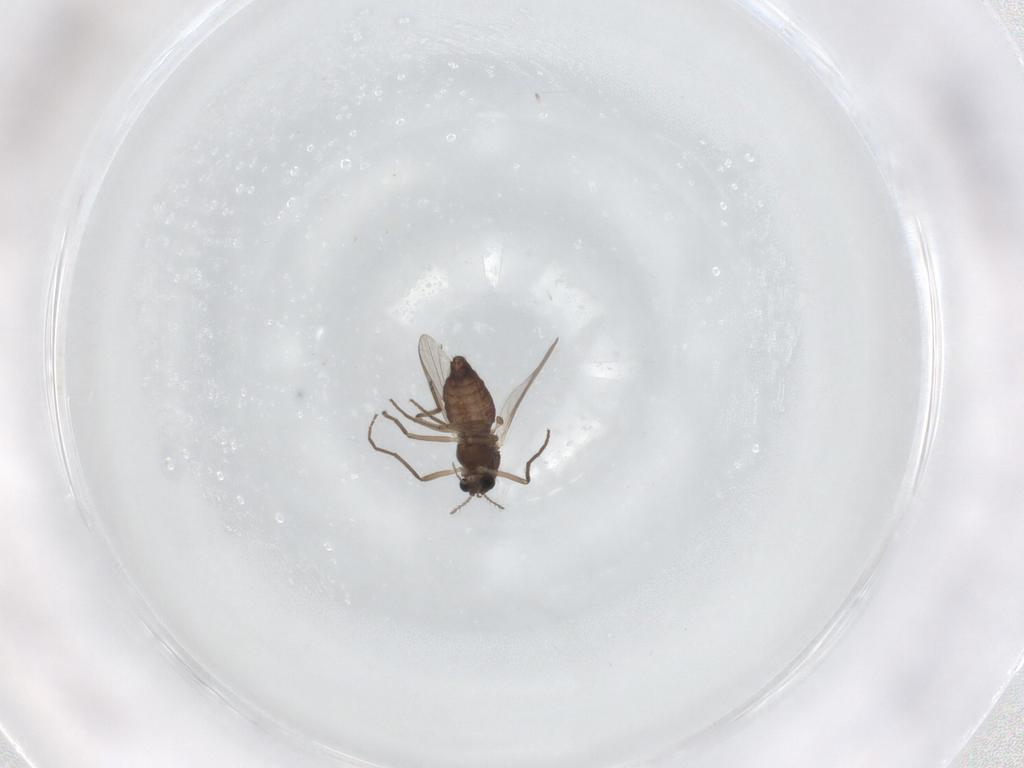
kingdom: Animalia
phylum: Arthropoda
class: Insecta
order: Diptera
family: Chironomidae
